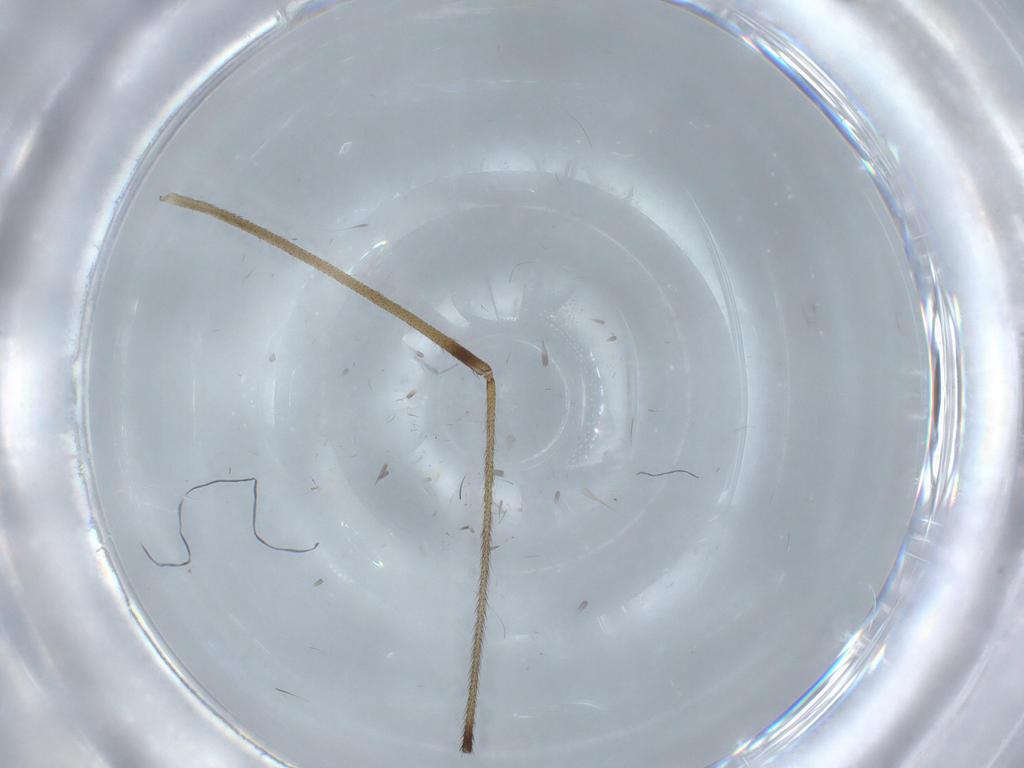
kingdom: Animalia
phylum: Arthropoda
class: Insecta
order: Diptera
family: Limoniidae
